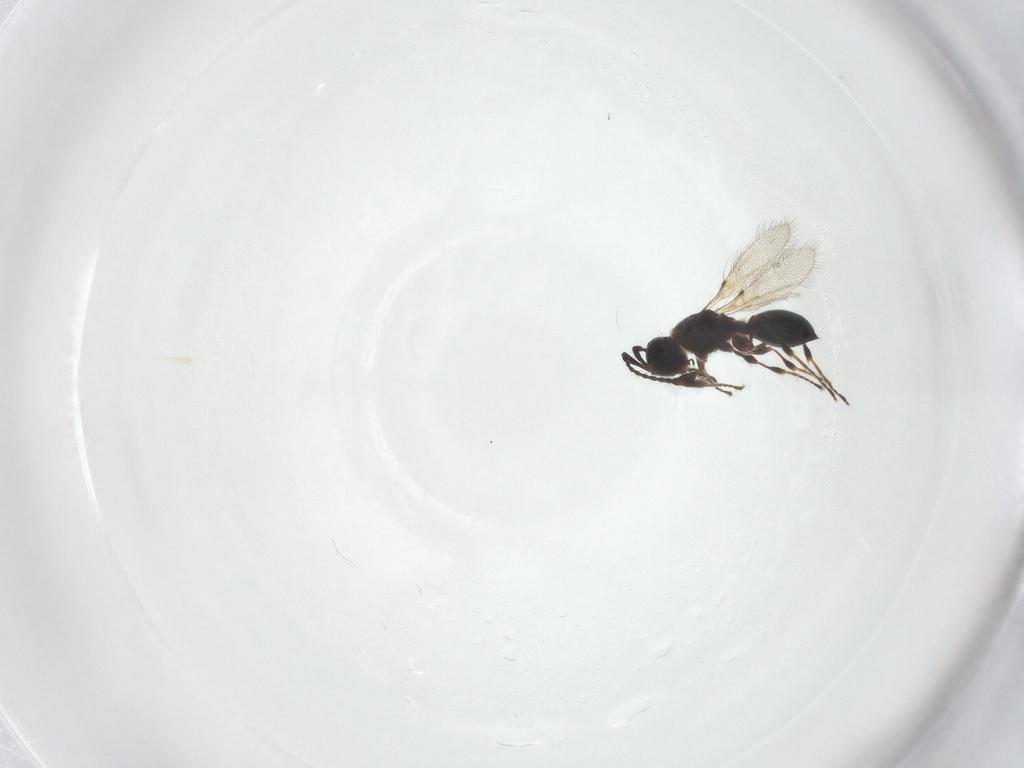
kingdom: Animalia
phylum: Arthropoda
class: Insecta
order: Hymenoptera
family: Diapriidae
